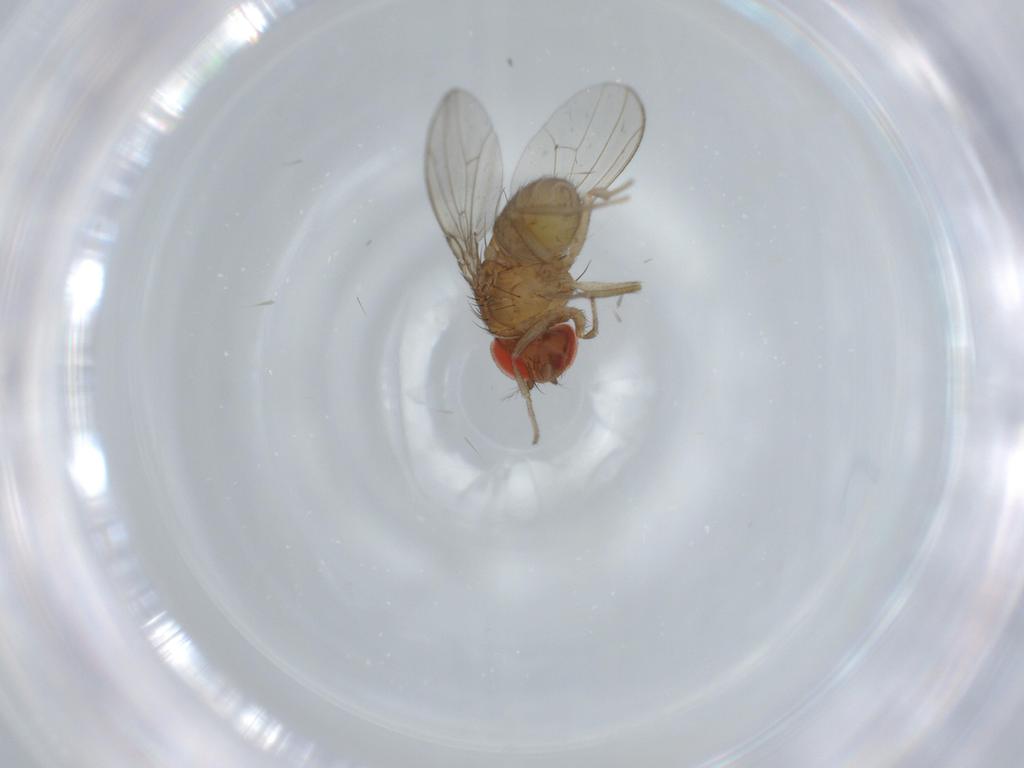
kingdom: Animalia
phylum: Arthropoda
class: Insecta
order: Diptera
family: Drosophilidae
